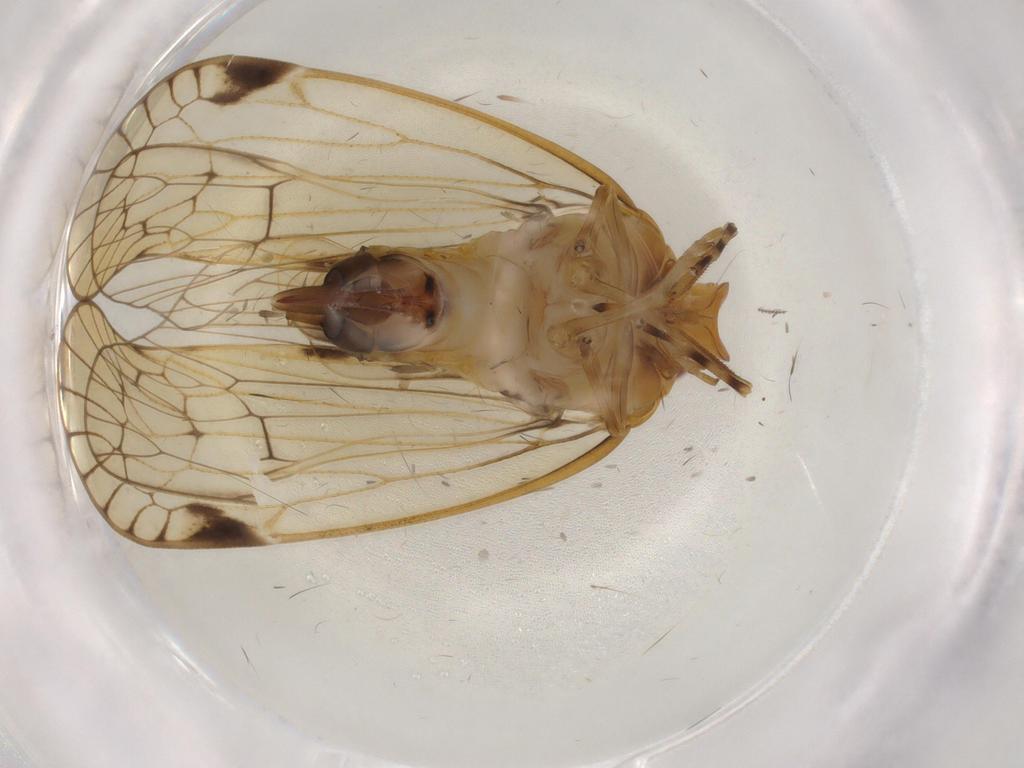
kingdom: Animalia
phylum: Arthropoda
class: Insecta
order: Hemiptera
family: Cixiidae
